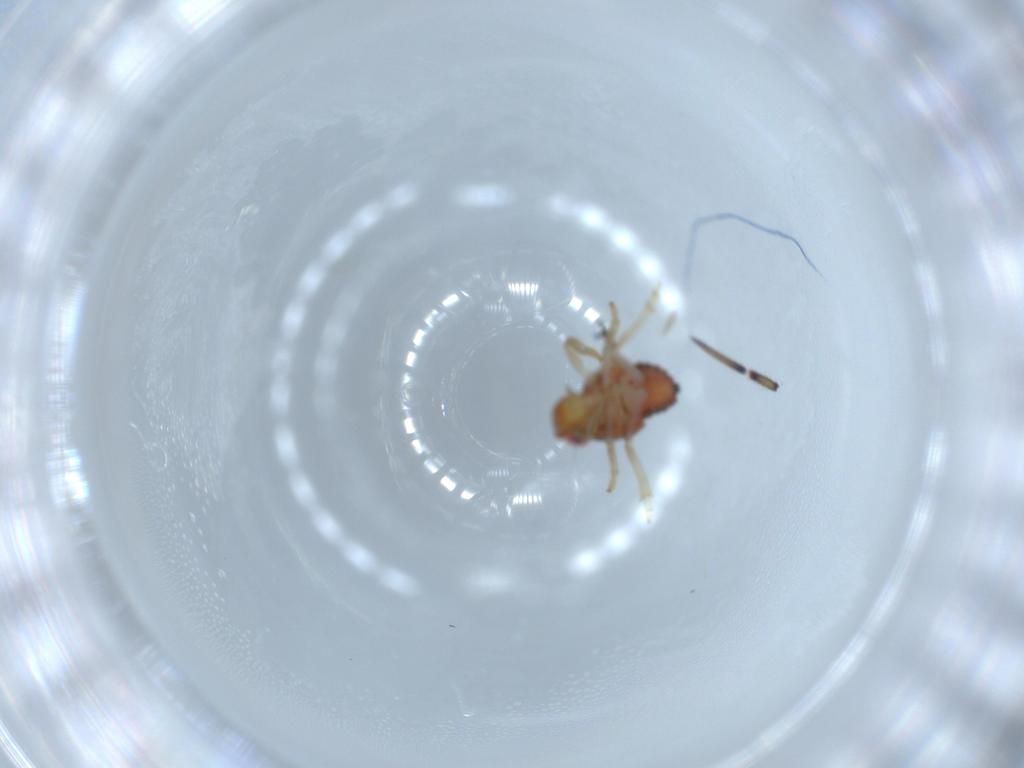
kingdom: Animalia
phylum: Arthropoda
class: Insecta
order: Hemiptera
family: Issidae
